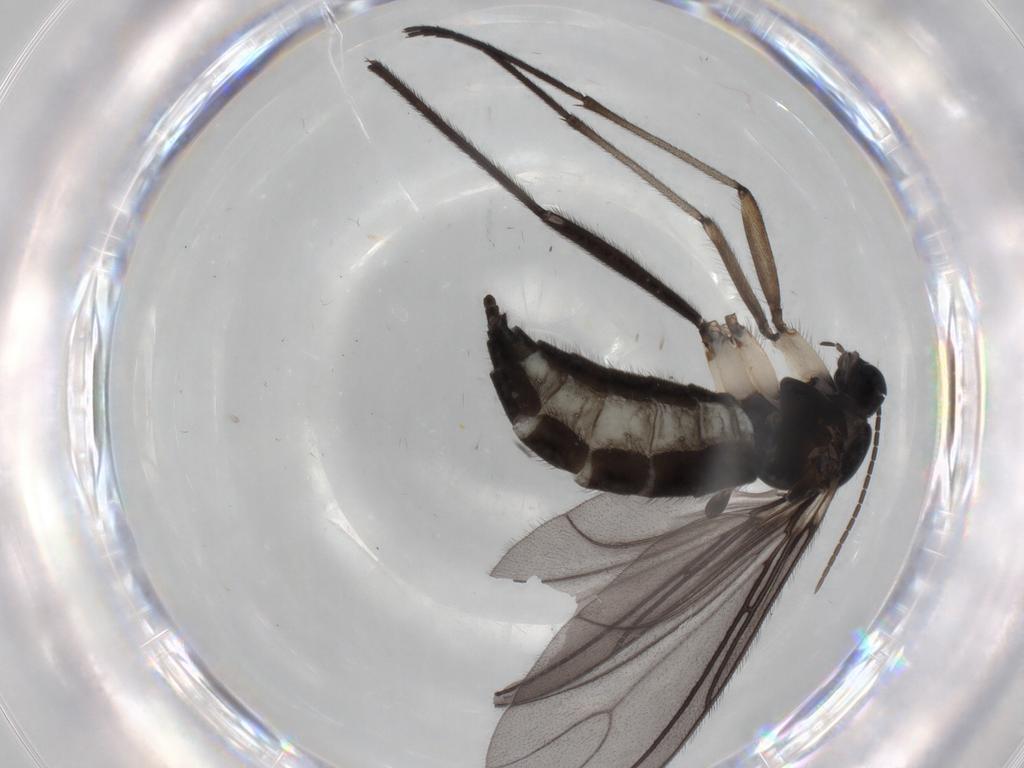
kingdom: Animalia
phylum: Arthropoda
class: Insecta
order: Diptera
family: Sciaridae
